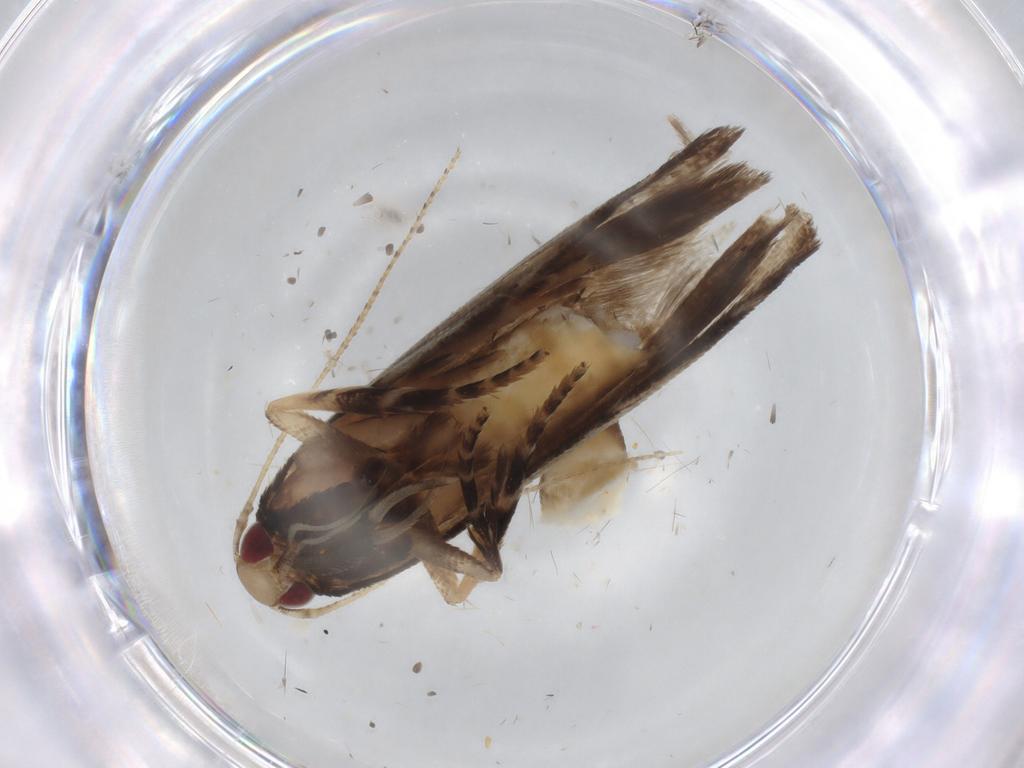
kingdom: Animalia
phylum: Arthropoda
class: Insecta
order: Lepidoptera
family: Gelechiidae
